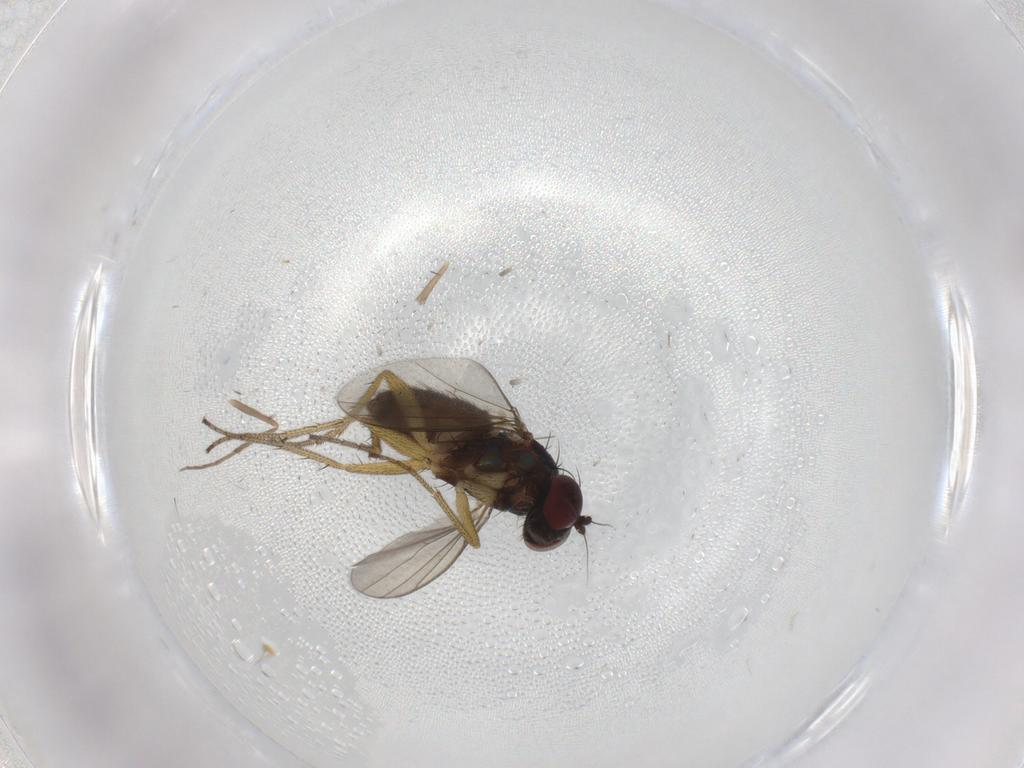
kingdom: Animalia
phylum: Arthropoda
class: Insecta
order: Diptera
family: Dolichopodidae
